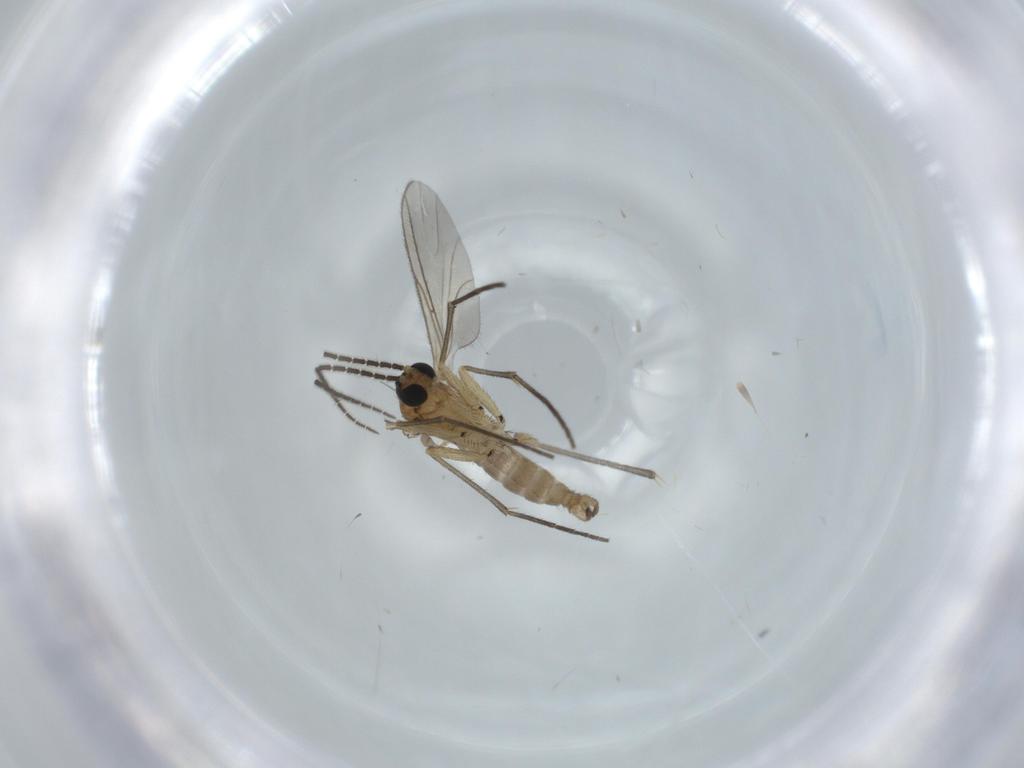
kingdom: Animalia
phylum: Arthropoda
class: Insecta
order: Diptera
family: Sciaridae
